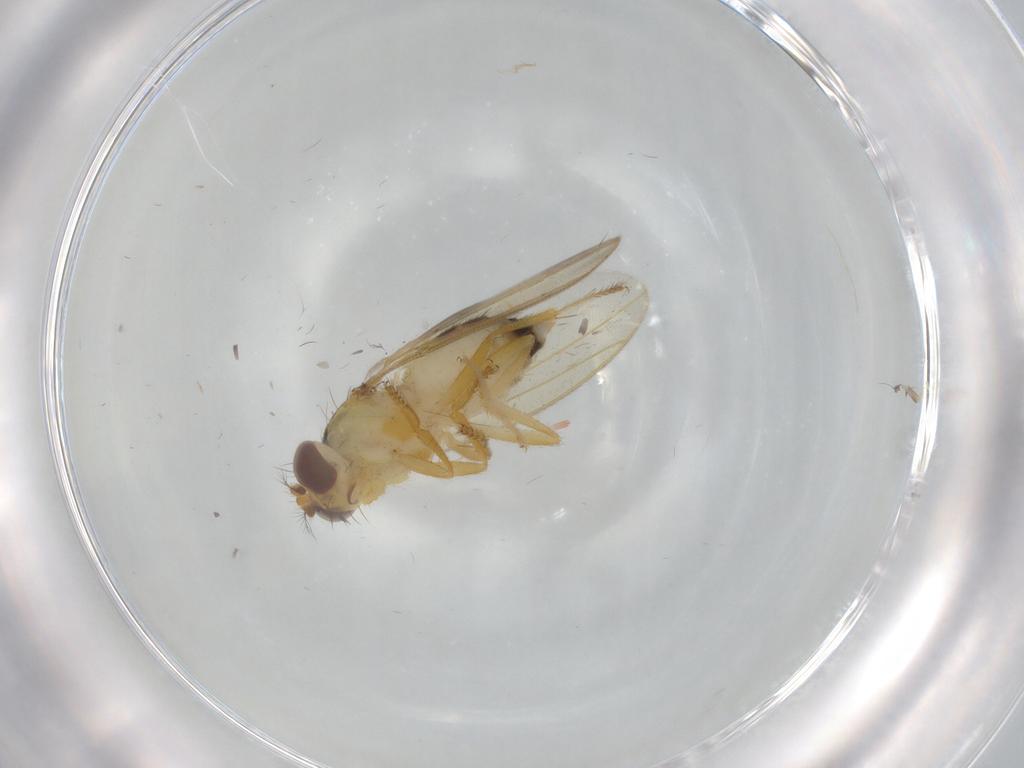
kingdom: Animalia
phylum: Arthropoda
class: Insecta
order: Diptera
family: Periscelididae
